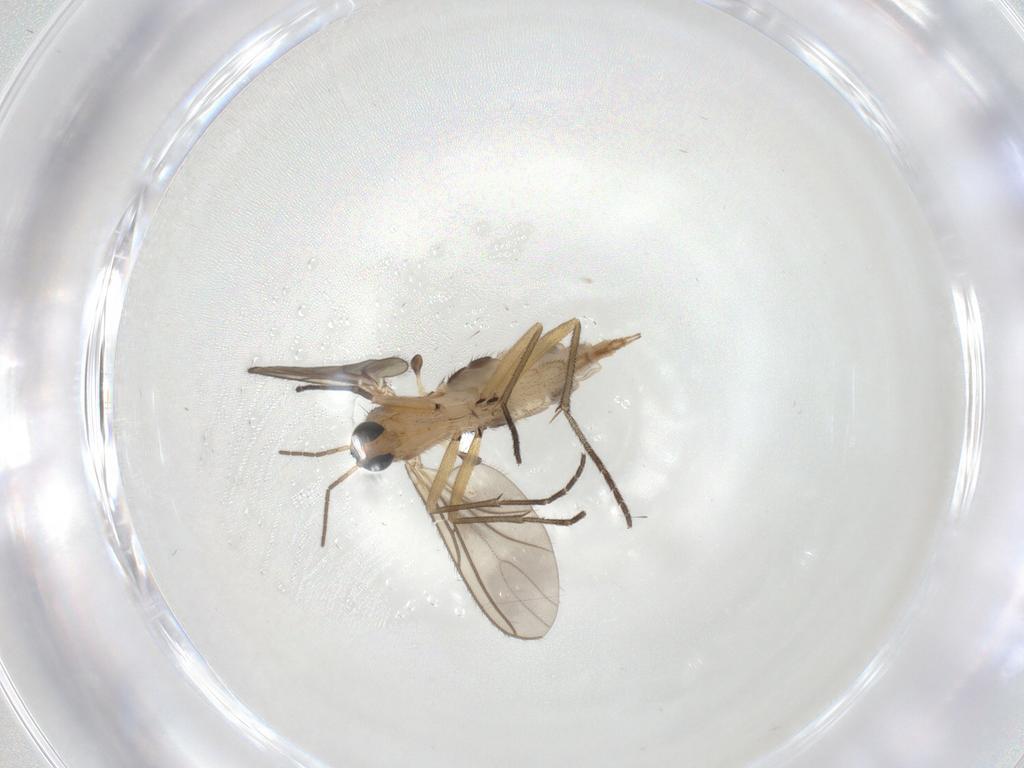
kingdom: Animalia
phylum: Arthropoda
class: Insecta
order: Diptera
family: Sciaridae
